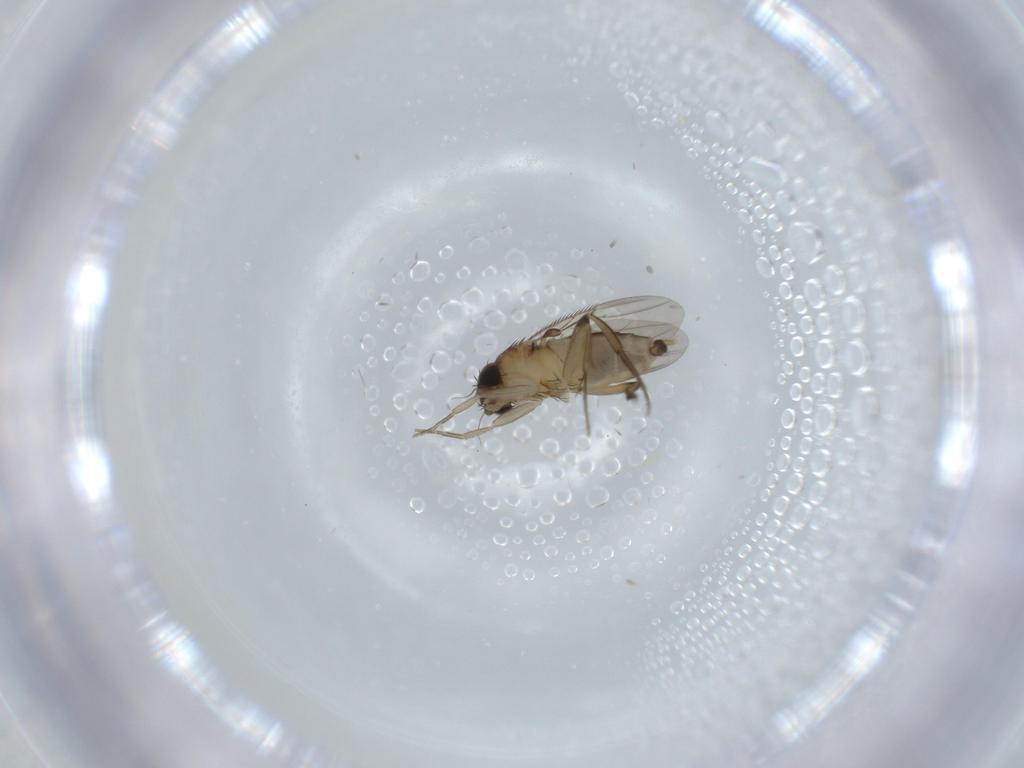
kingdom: Animalia
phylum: Arthropoda
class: Insecta
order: Diptera
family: Phoridae
